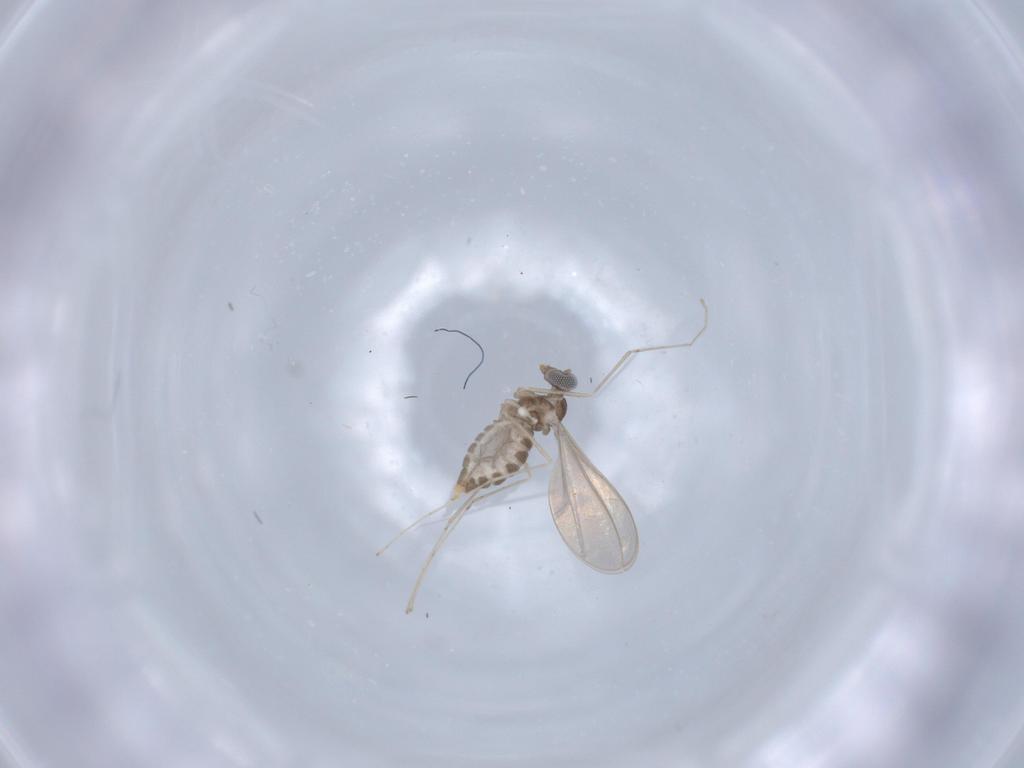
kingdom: Animalia
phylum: Arthropoda
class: Insecta
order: Diptera
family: Cecidomyiidae
